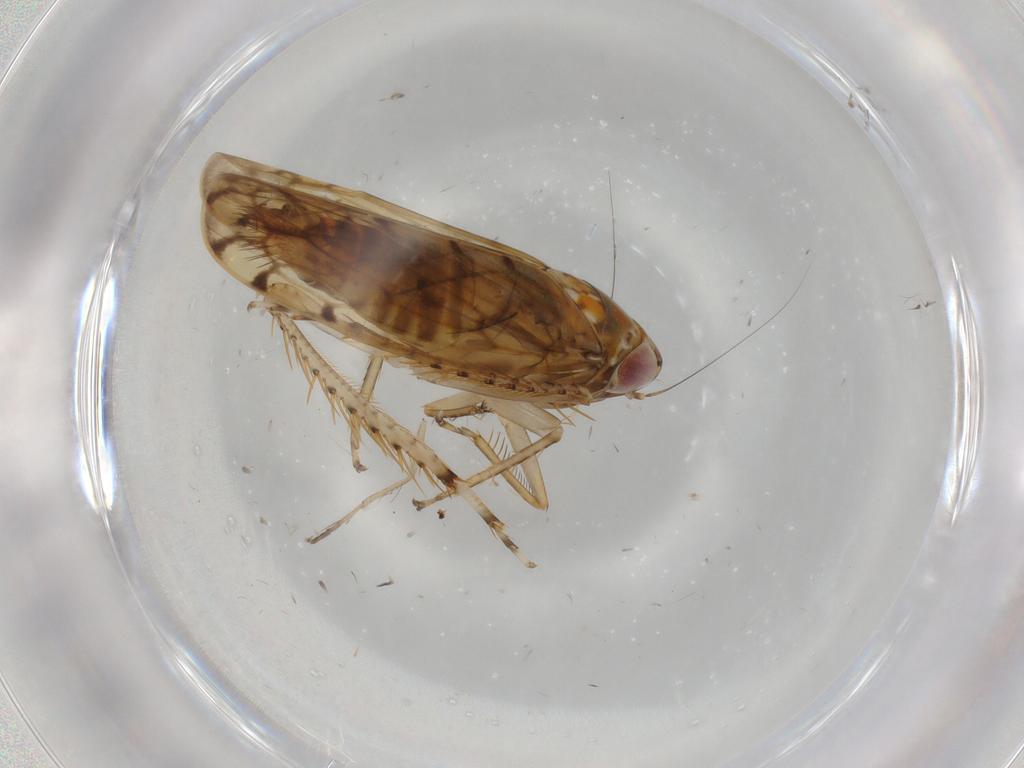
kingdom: Animalia
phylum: Arthropoda
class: Insecta
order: Hemiptera
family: Cicadellidae
